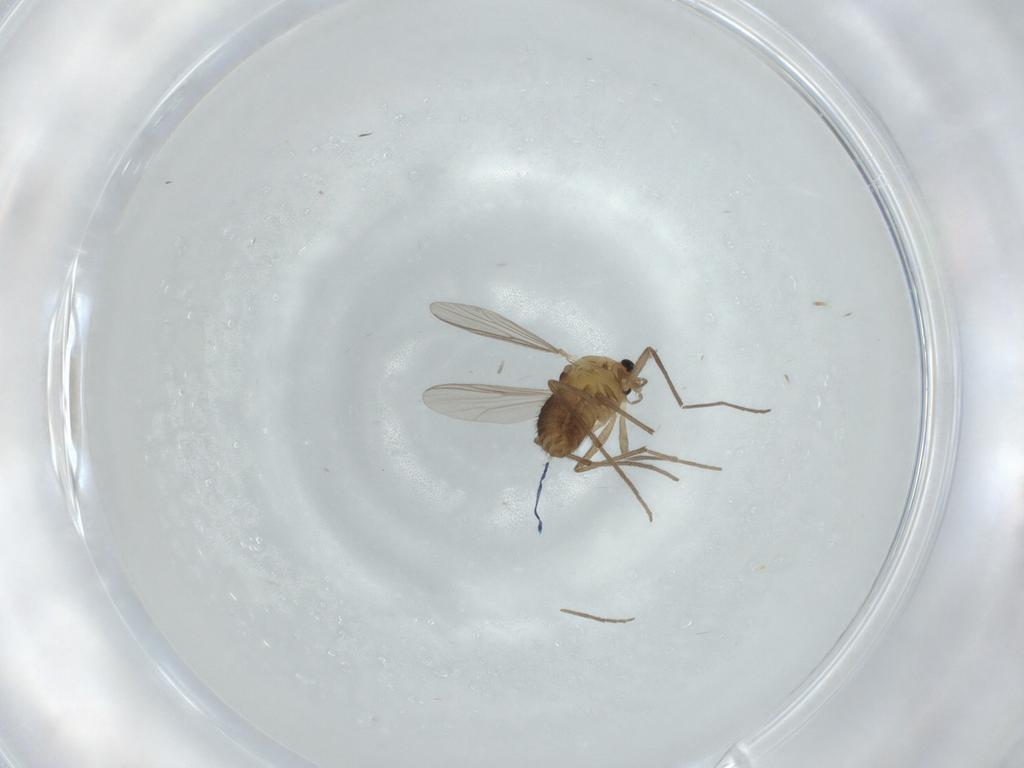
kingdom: Animalia
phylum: Arthropoda
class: Insecta
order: Diptera
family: Chironomidae
